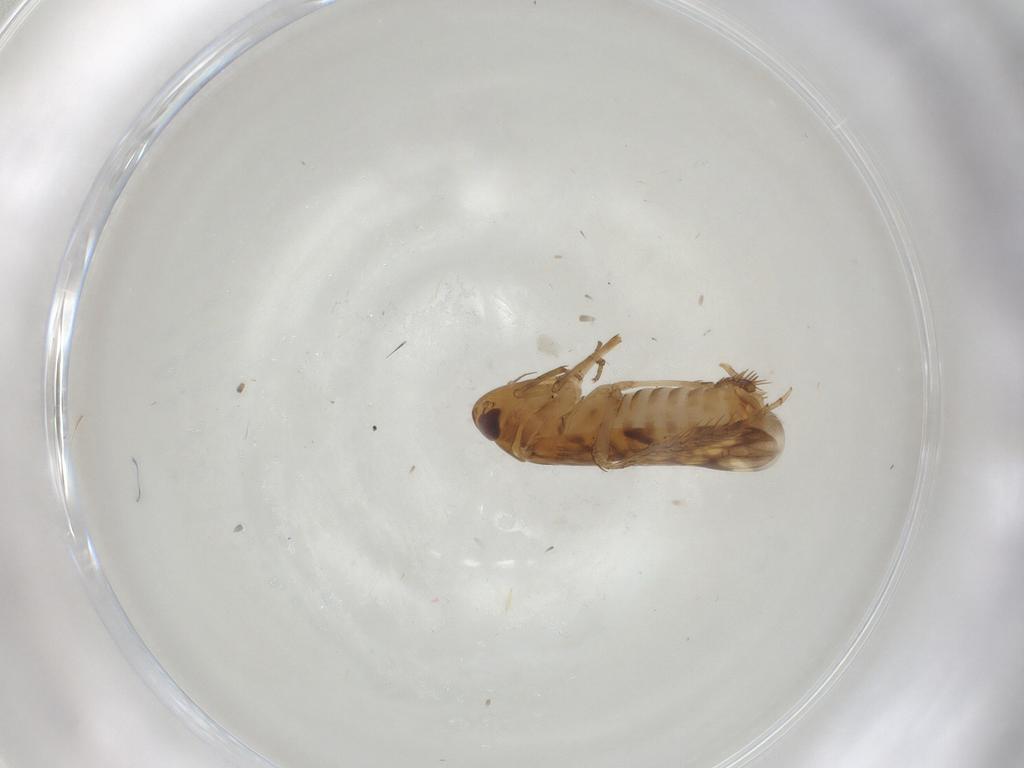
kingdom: Animalia
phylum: Arthropoda
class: Insecta
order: Hemiptera
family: Cicadellidae
